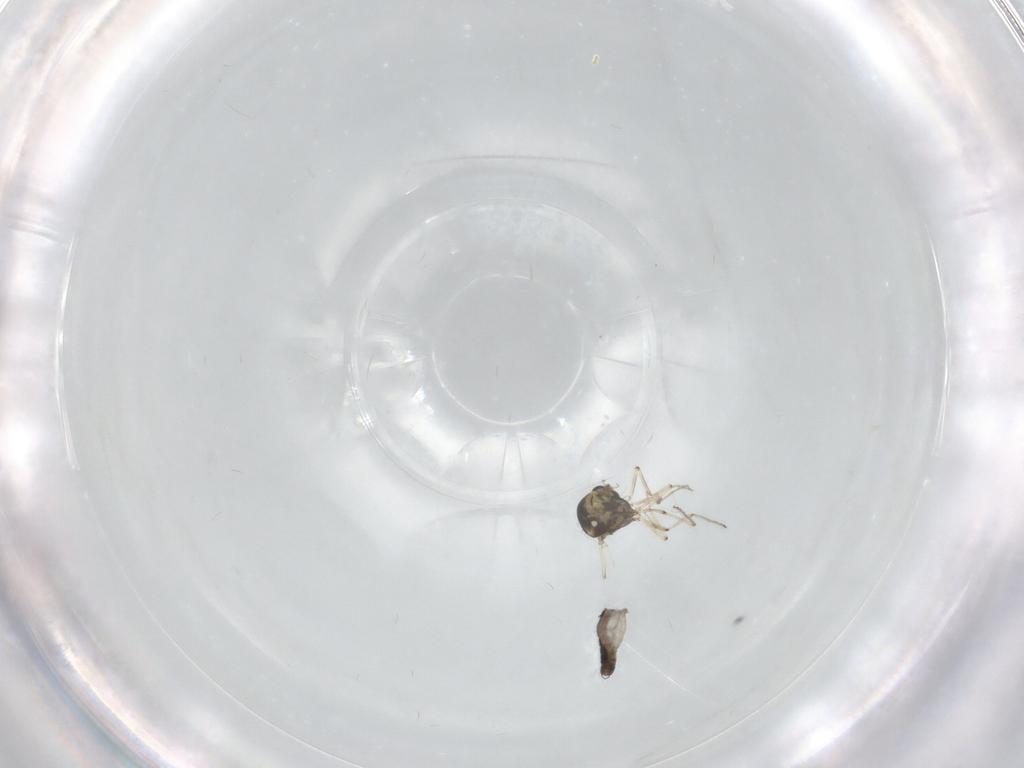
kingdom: Animalia
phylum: Arthropoda
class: Insecta
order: Diptera
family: Ceratopogonidae
